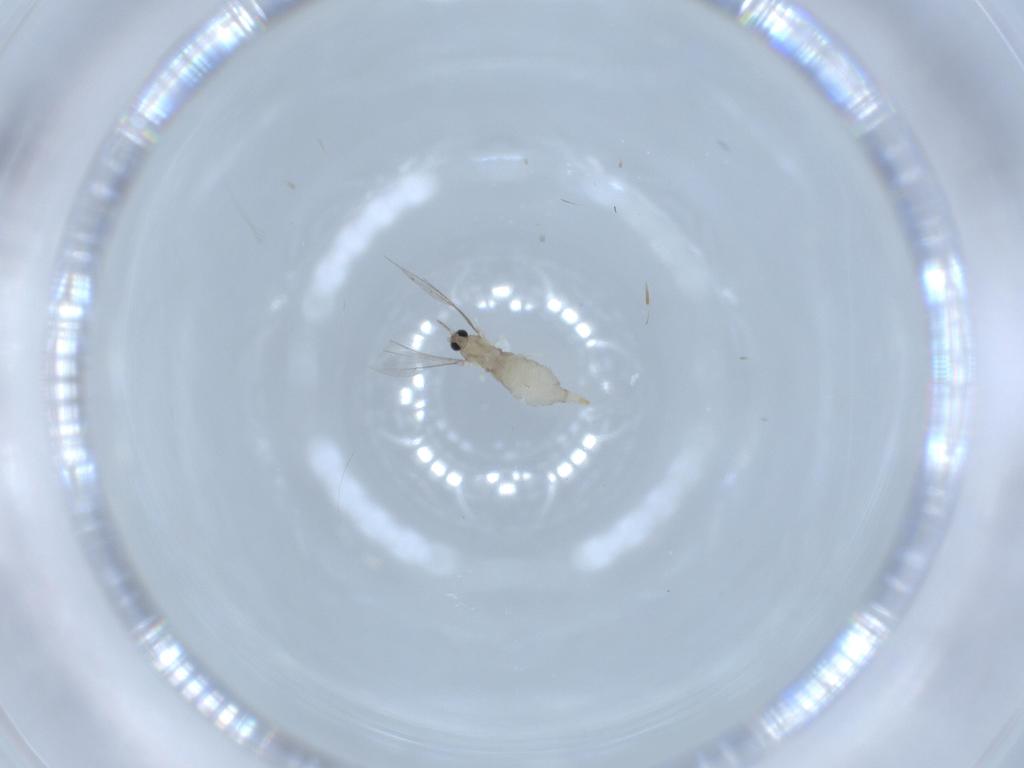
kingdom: Animalia
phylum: Arthropoda
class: Insecta
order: Diptera
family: Cecidomyiidae
